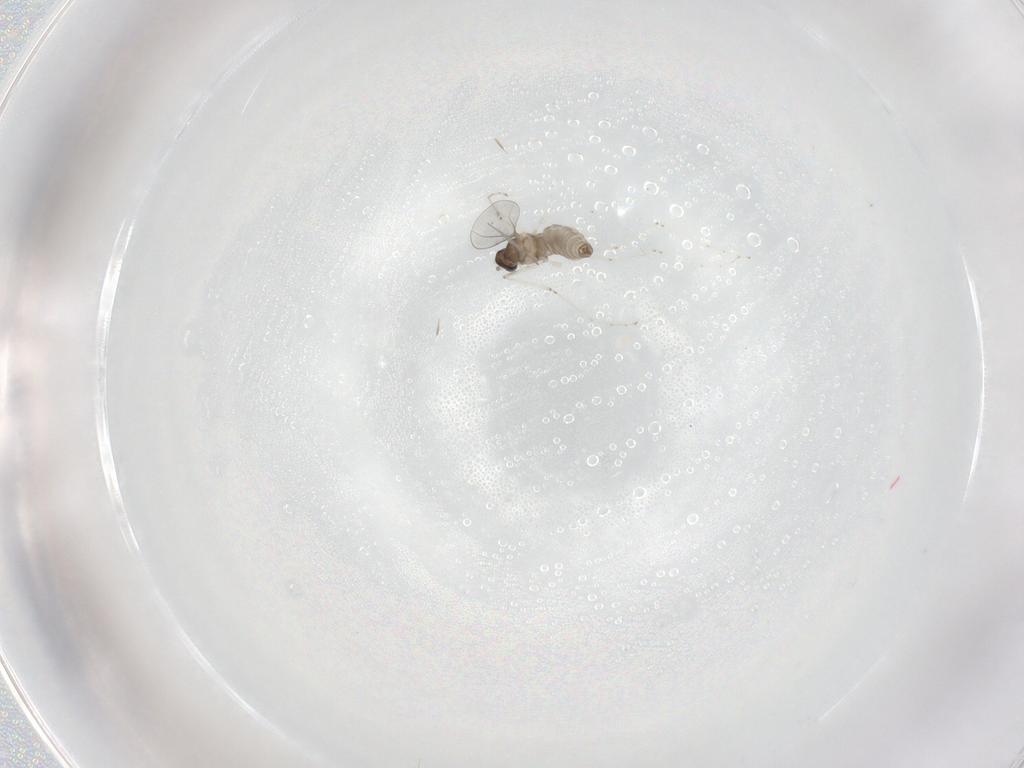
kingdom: Animalia
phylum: Arthropoda
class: Insecta
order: Diptera
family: Cecidomyiidae
